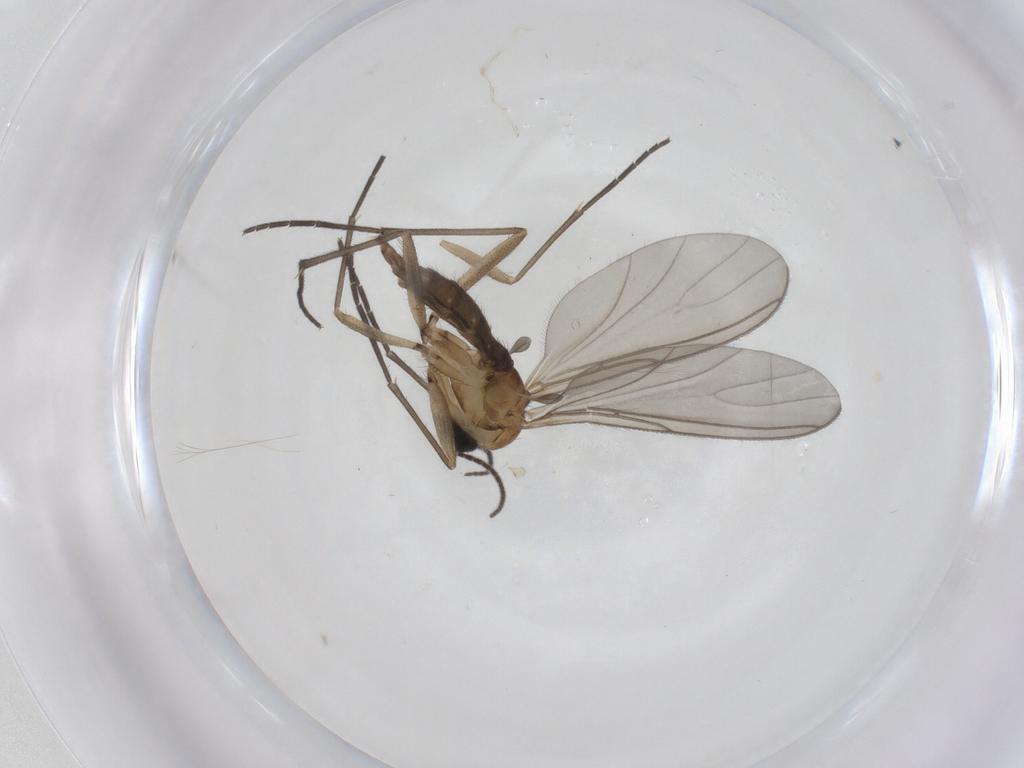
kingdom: Animalia
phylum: Arthropoda
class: Insecta
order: Diptera
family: Sciaridae
